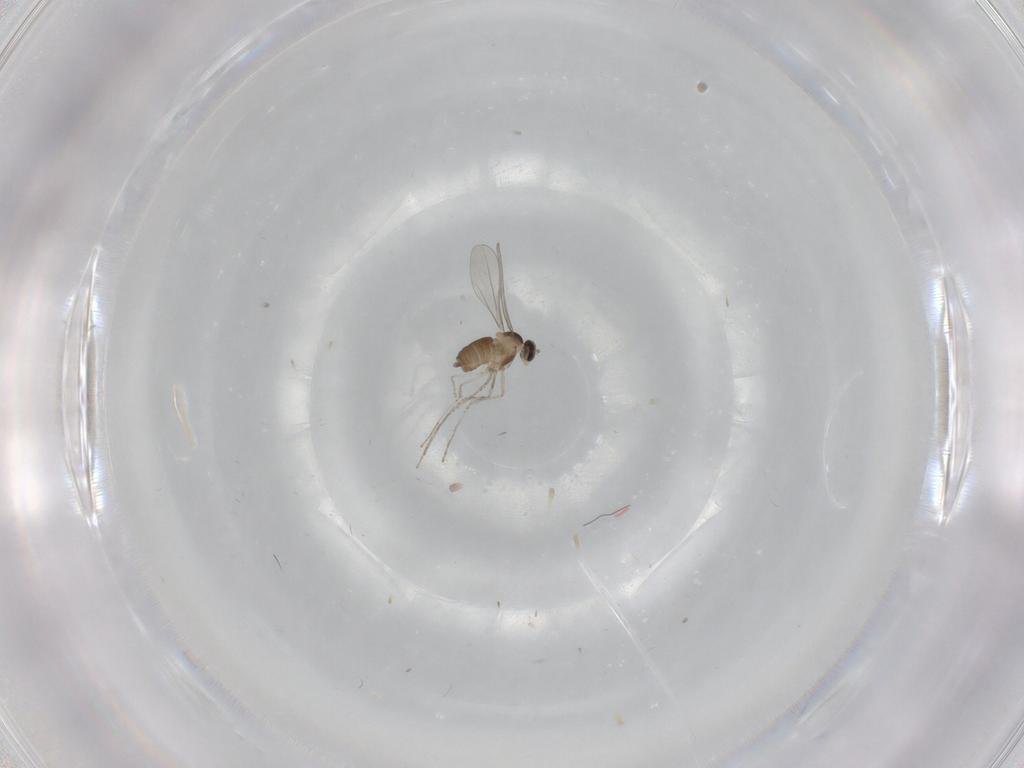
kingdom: Animalia
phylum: Arthropoda
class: Insecta
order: Diptera
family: Cecidomyiidae
